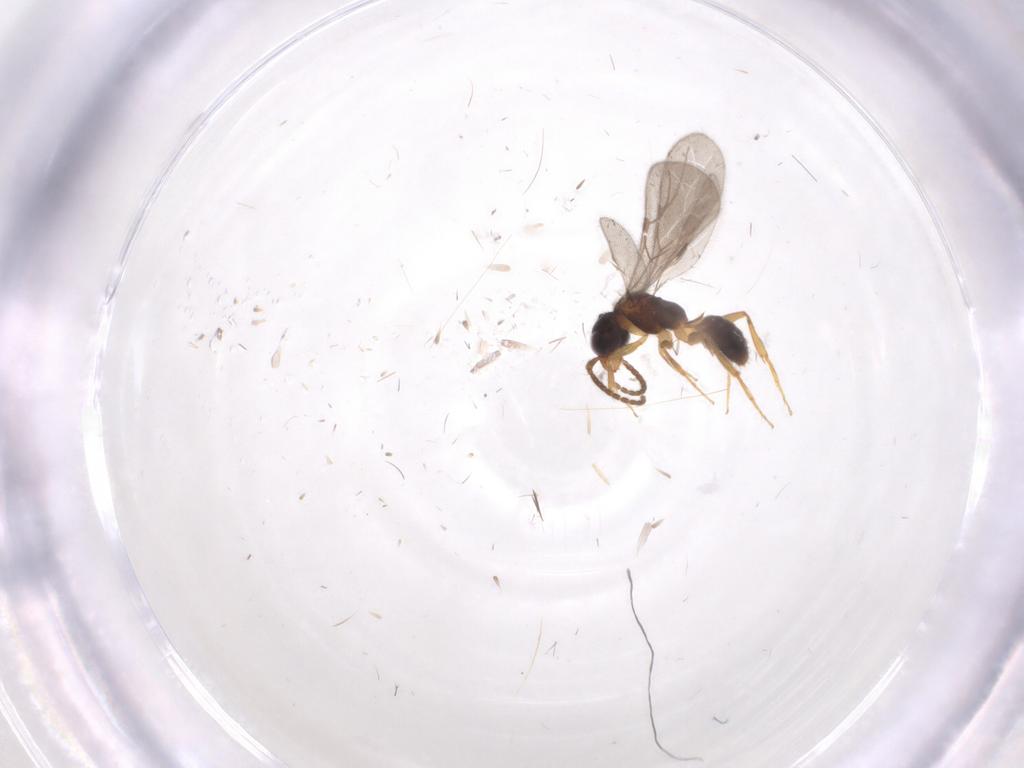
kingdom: Animalia
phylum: Arthropoda
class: Insecta
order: Hymenoptera
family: Bethylidae
